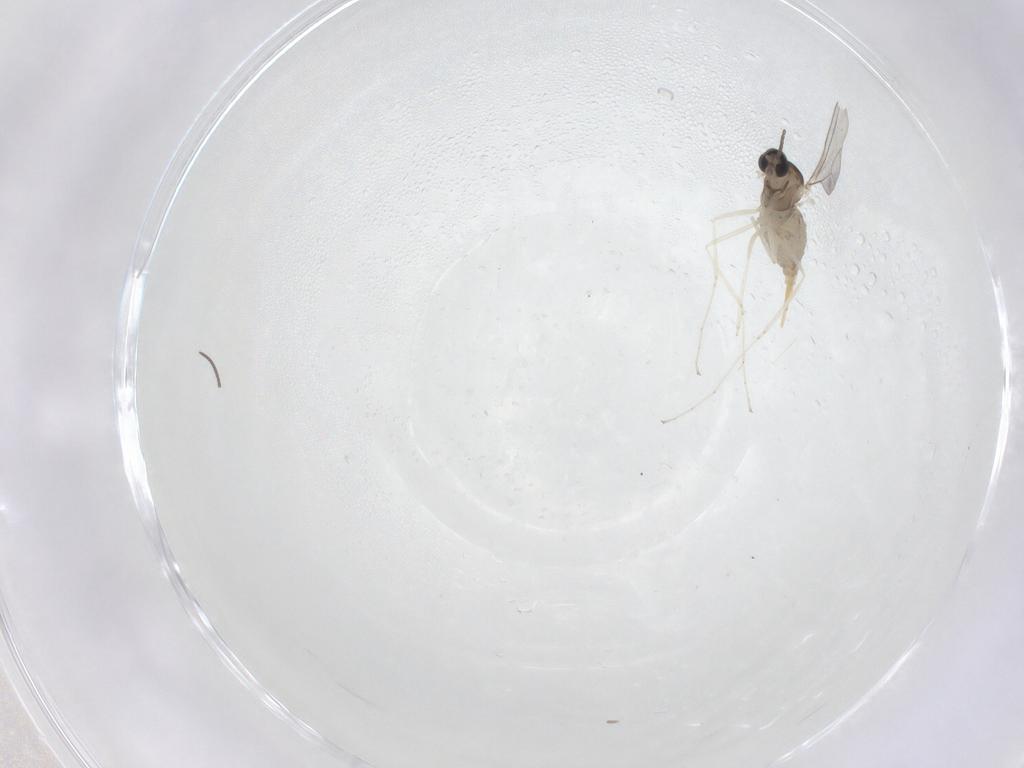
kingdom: Animalia
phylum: Arthropoda
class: Insecta
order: Diptera
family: Cecidomyiidae
